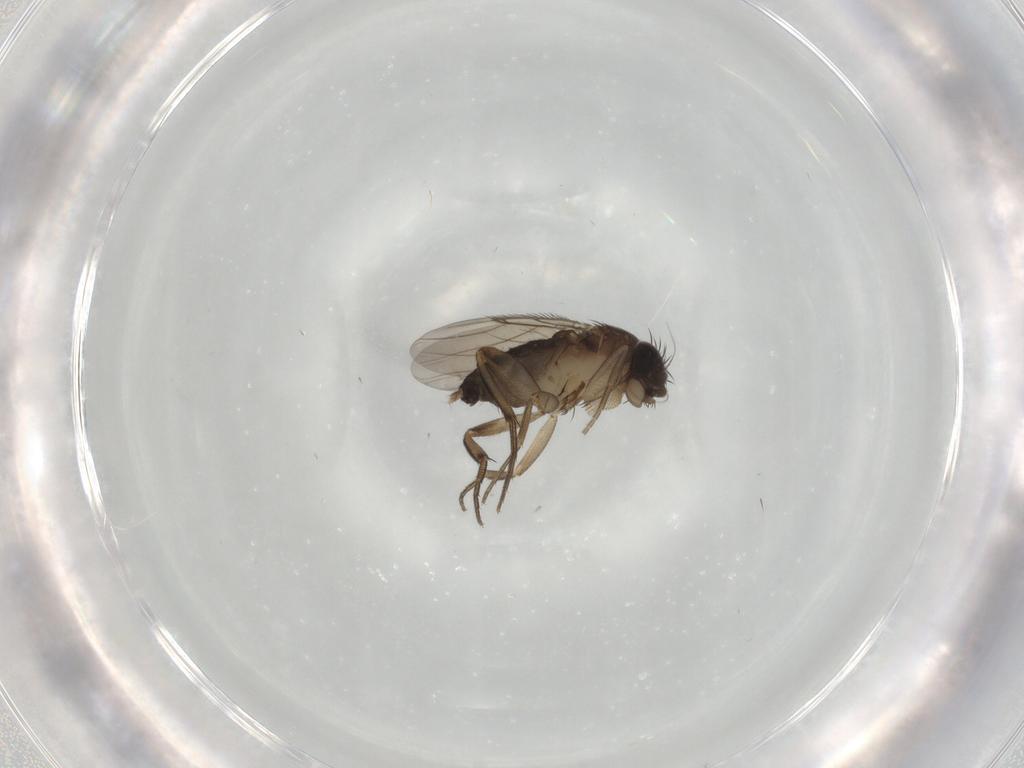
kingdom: Animalia
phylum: Arthropoda
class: Insecta
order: Diptera
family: Phoridae
